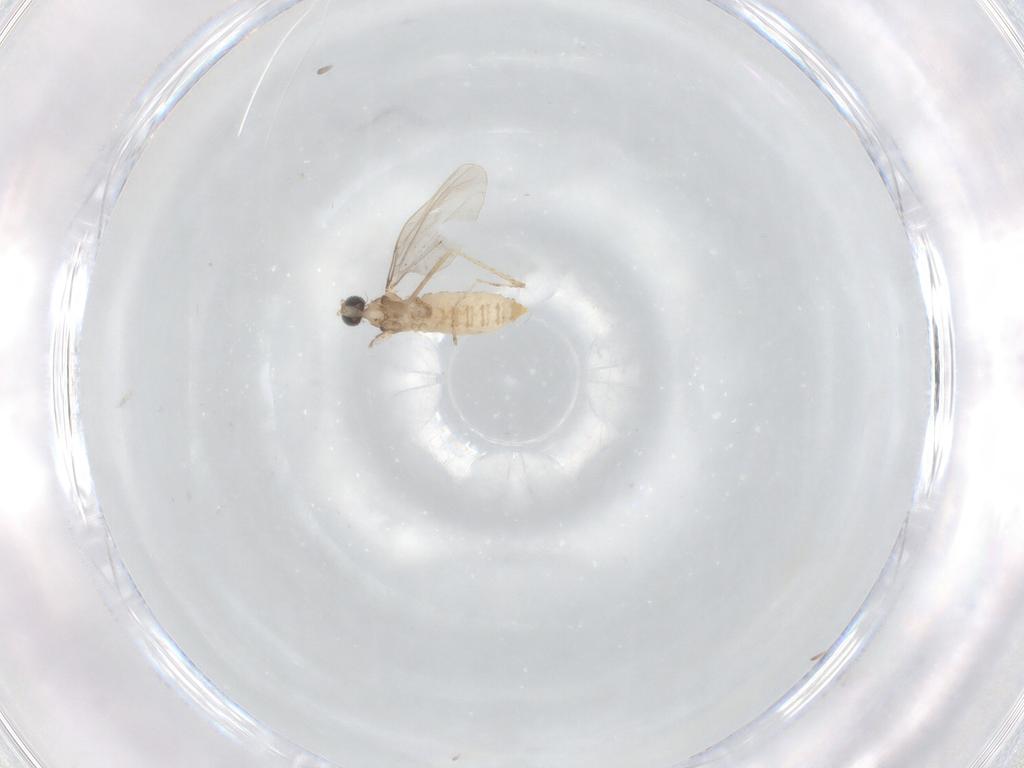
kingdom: Animalia
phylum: Arthropoda
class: Insecta
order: Diptera
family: Cecidomyiidae
